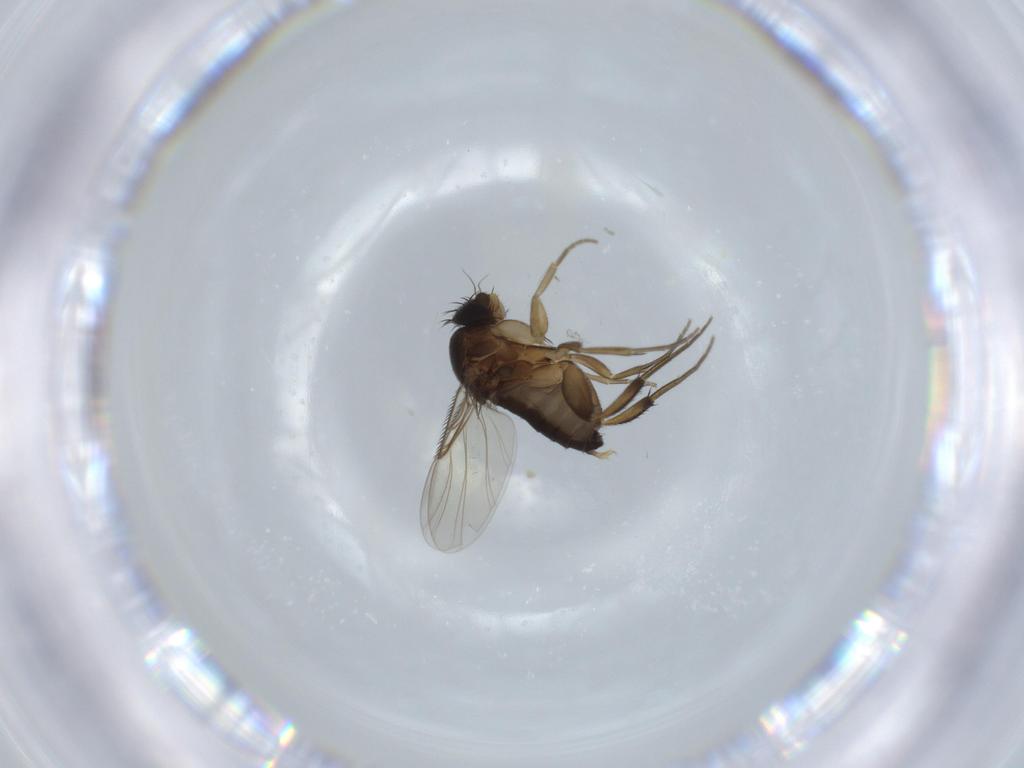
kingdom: Animalia
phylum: Arthropoda
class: Insecta
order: Diptera
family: Phoridae
